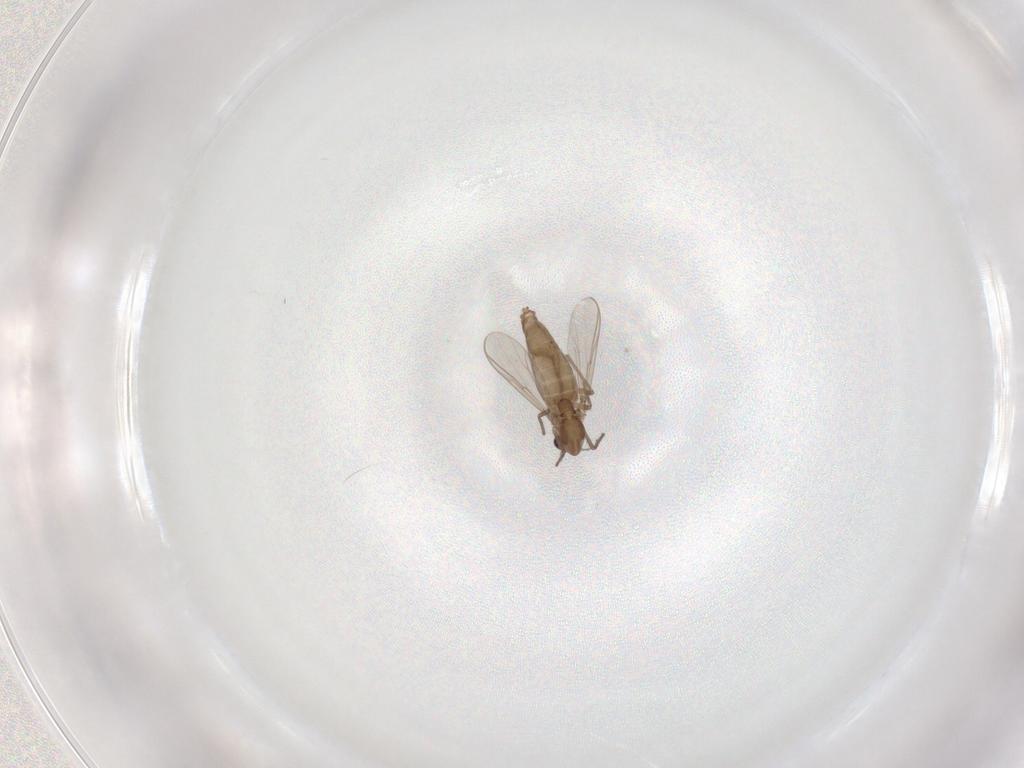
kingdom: Animalia
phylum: Arthropoda
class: Insecta
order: Diptera
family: Chironomidae
